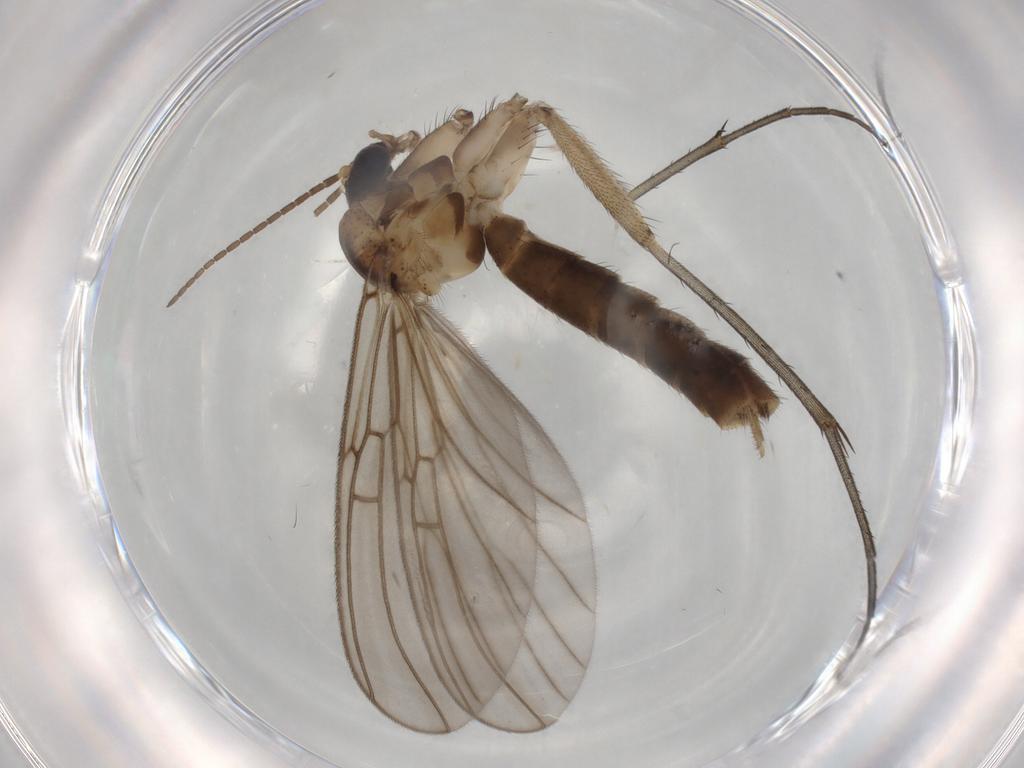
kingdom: Animalia
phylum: Arthropoda
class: Insecta
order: Diptera
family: Mycetophilidae
